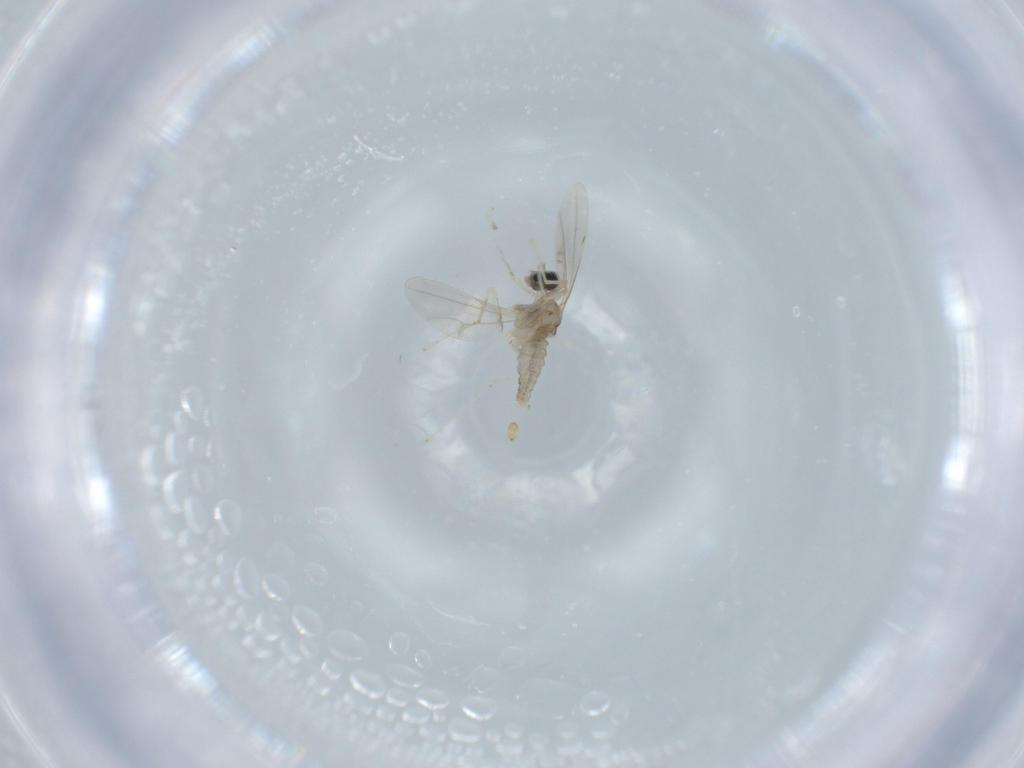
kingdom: Animalia
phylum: Arthropoda
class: Insecta
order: Diptera
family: Cecidomyiidae
